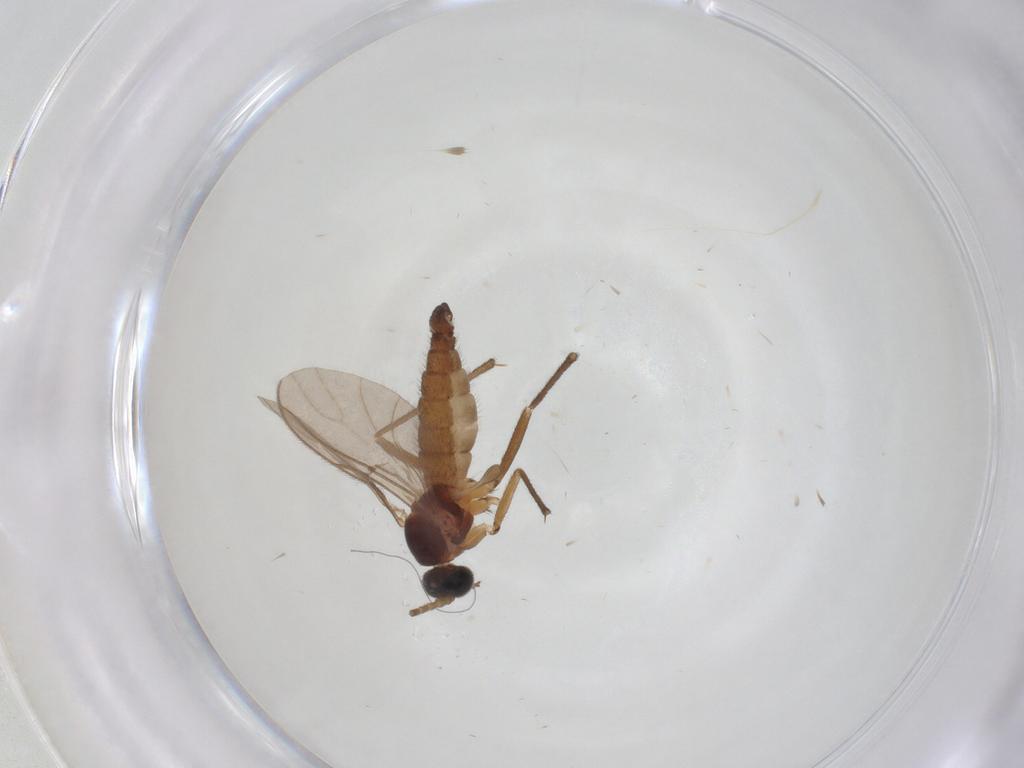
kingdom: Animalia
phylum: Arthropoda
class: Insecta
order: Diptera
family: Sciaridae
